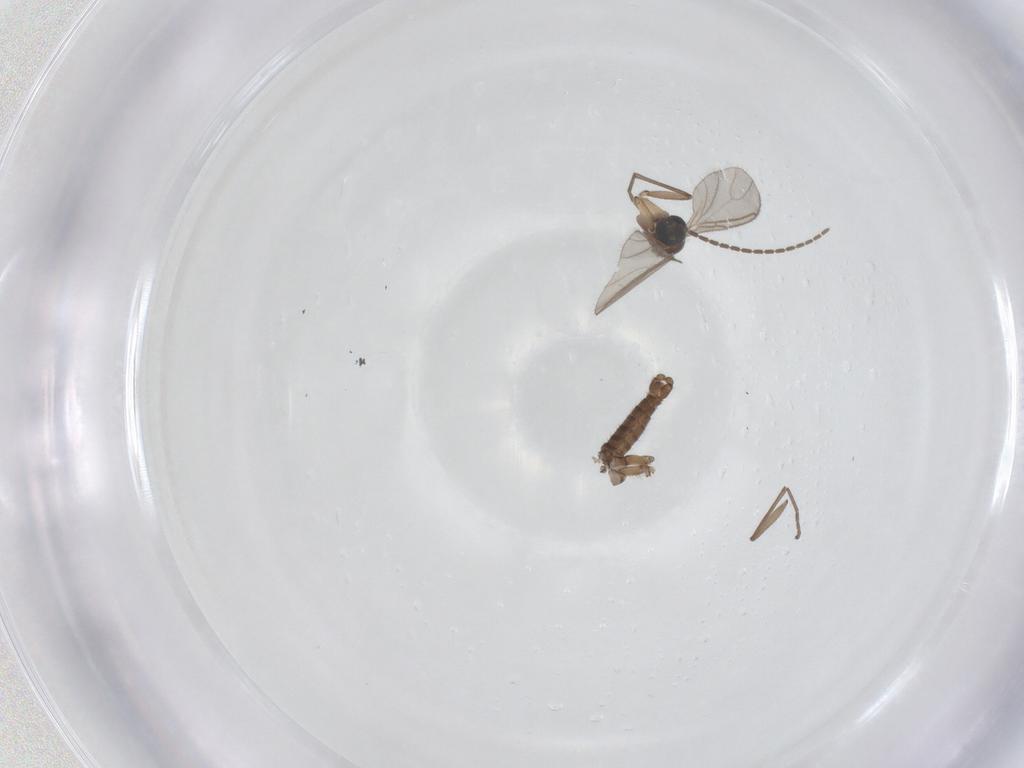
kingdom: Animalia
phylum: Arthropoda
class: Insecta
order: Diptera
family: Sciaridae
